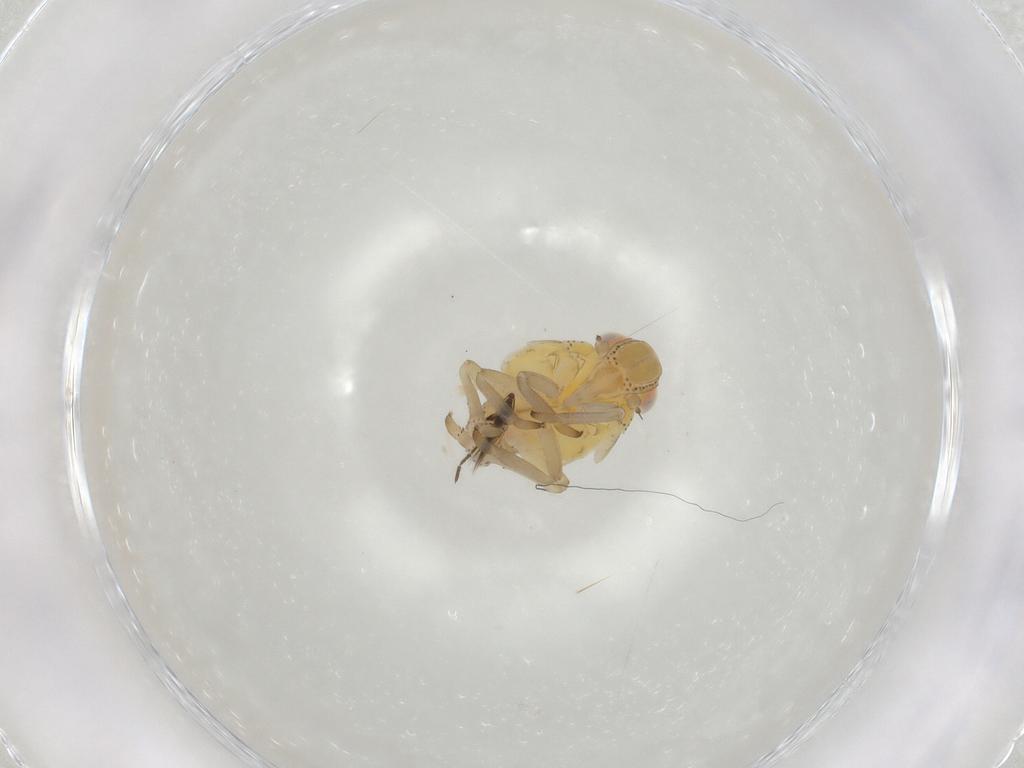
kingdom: Animalia
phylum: Arthropoda
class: Insecta
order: Hemiptera
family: Tropiduchidae
